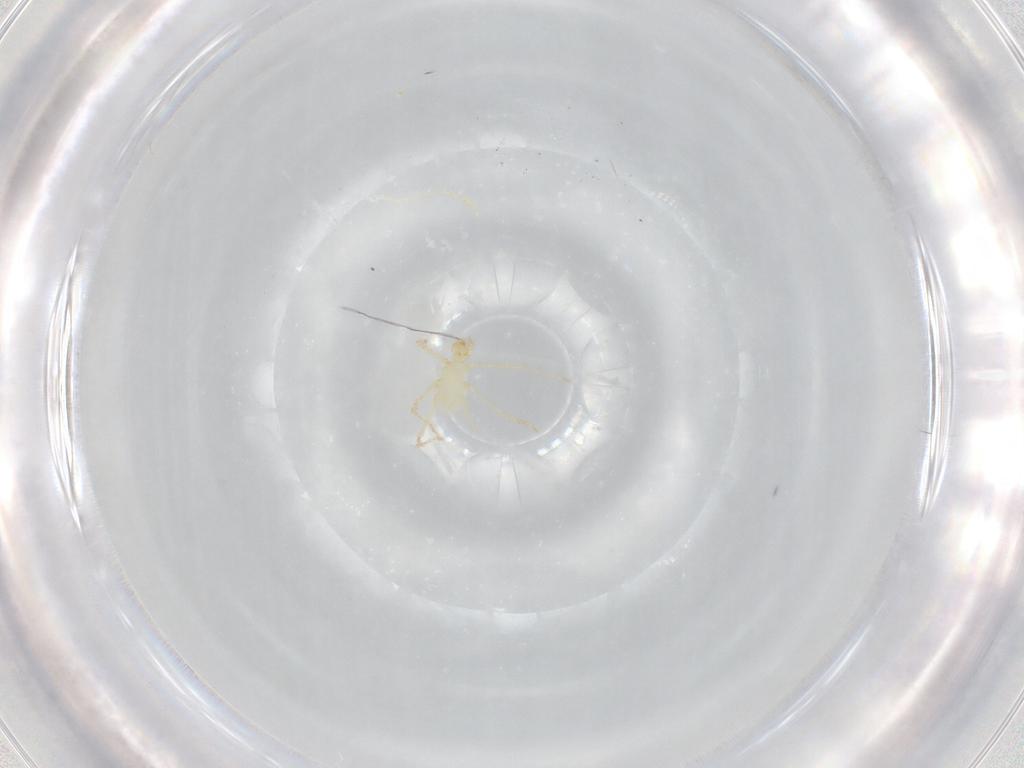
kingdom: Animalia
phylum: Arthropoda
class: Arachnida
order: Trombidiformes
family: Erythraeidae
